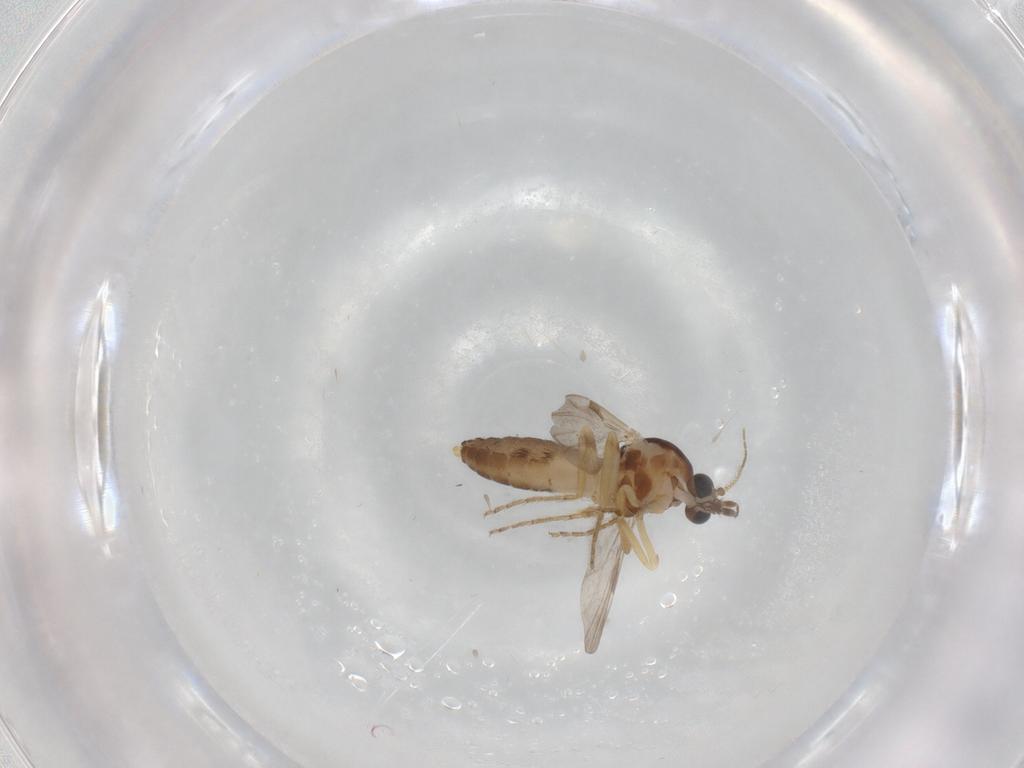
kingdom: Animalia
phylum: Arthropoda
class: Insecta
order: Diptera
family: Ceratopogonidae
